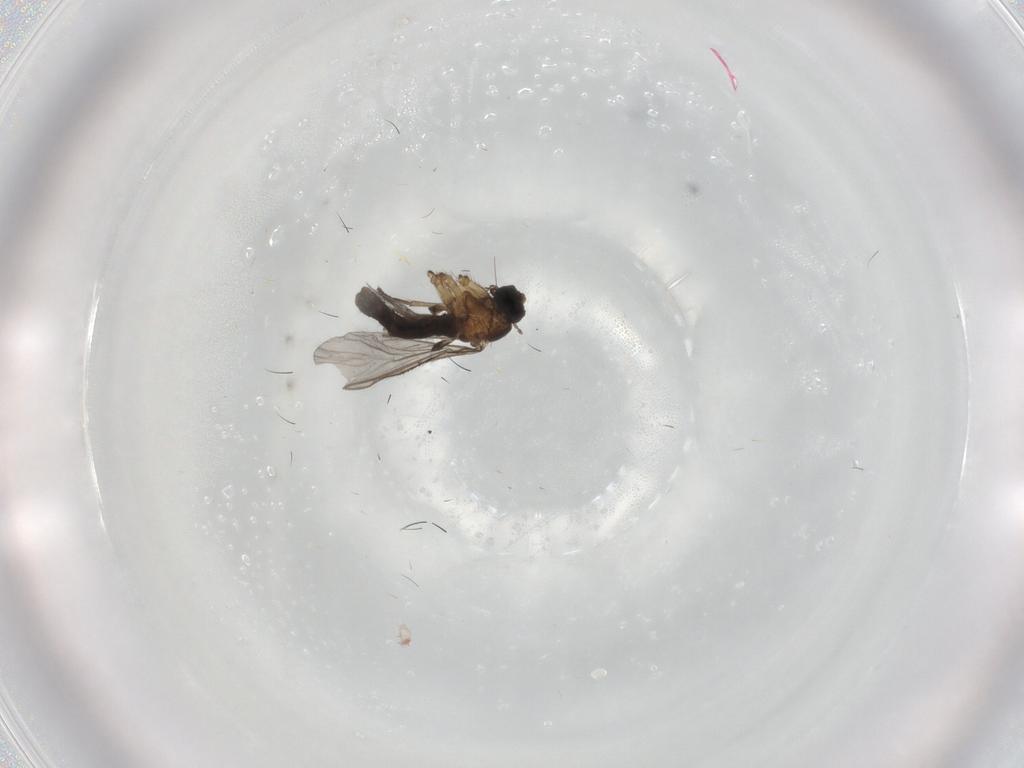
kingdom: Animalia
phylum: Arthropoda
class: Insecta
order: Diptera
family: Sciaridae
